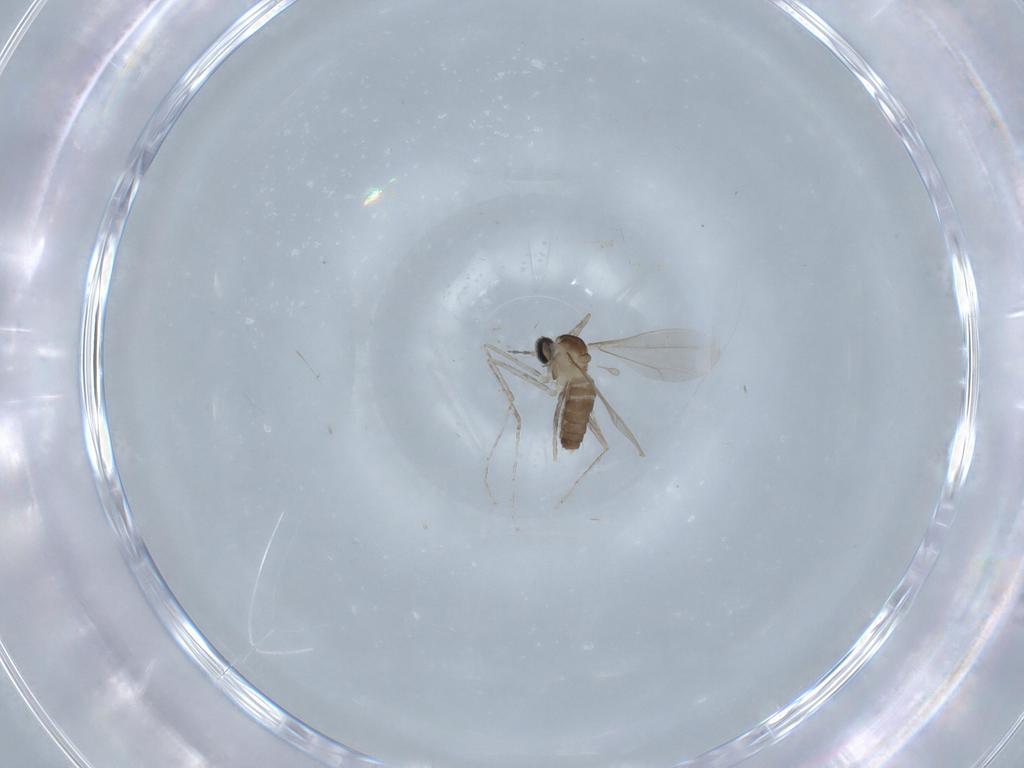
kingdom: Animalia
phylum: Arthropoda
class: Insecta
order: Diptera
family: Cecidomyiidae
